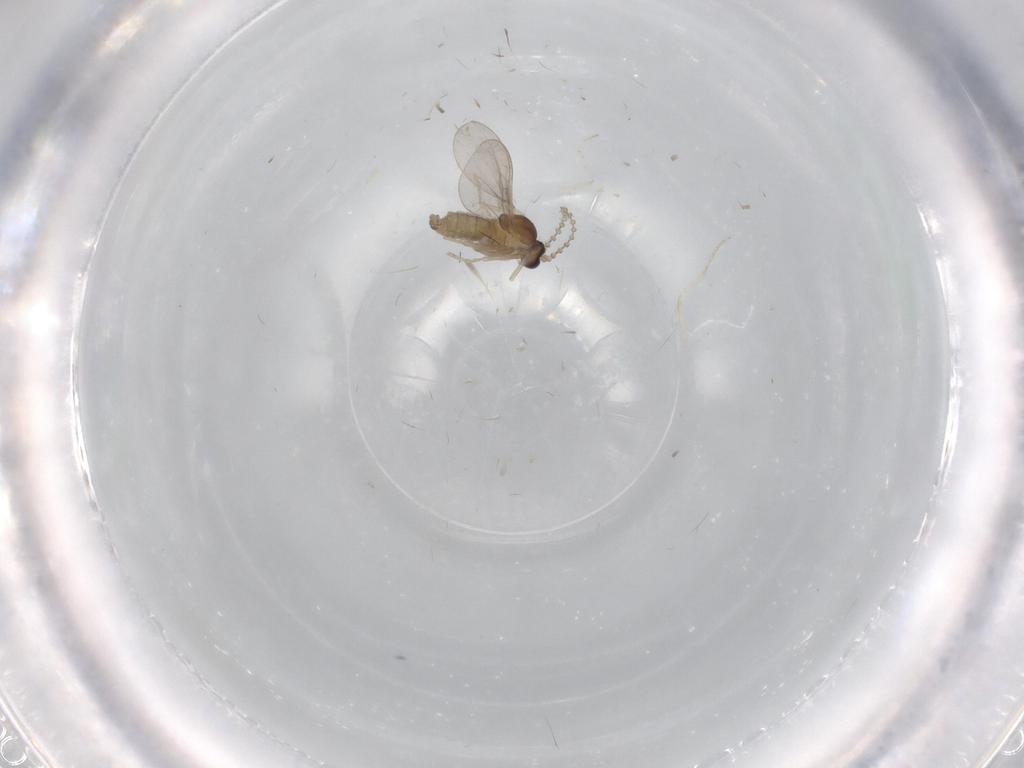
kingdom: Animalia
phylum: Arthropoda
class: Insecta
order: Diptera
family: Cecidomyiidae
